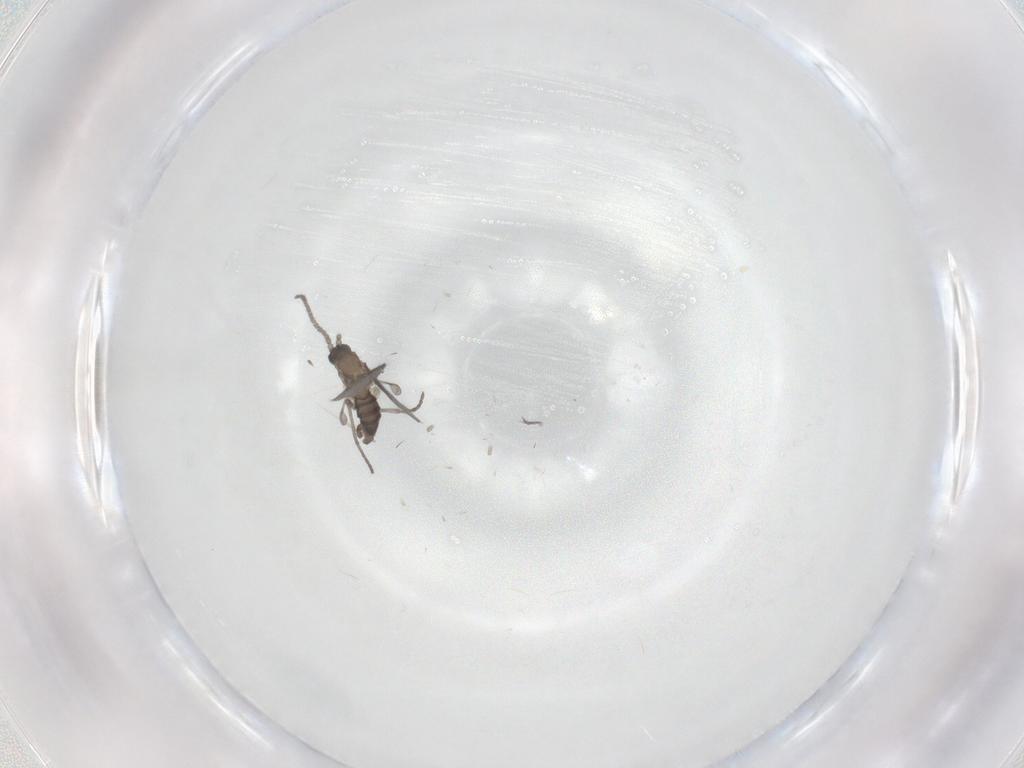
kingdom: Animalia
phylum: Arthropoda
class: Insecta
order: Diptera
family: Sciaridae
